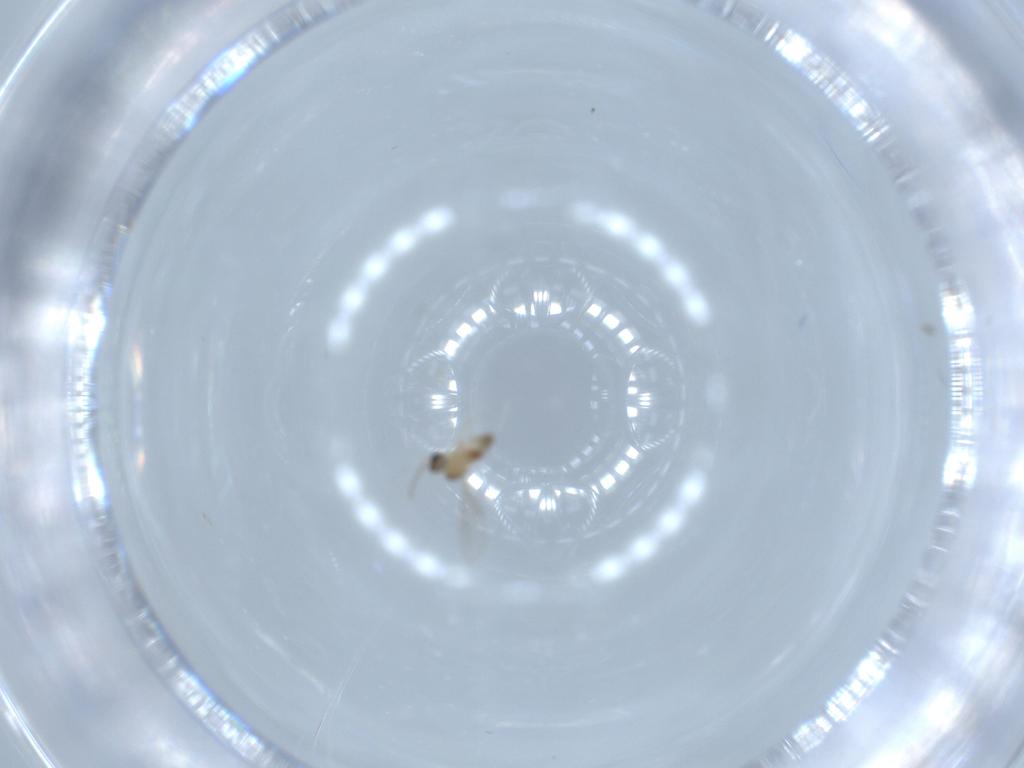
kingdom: Animalia
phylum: Arthropoda
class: Insecta
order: Diptera
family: Cecidomyiidae
